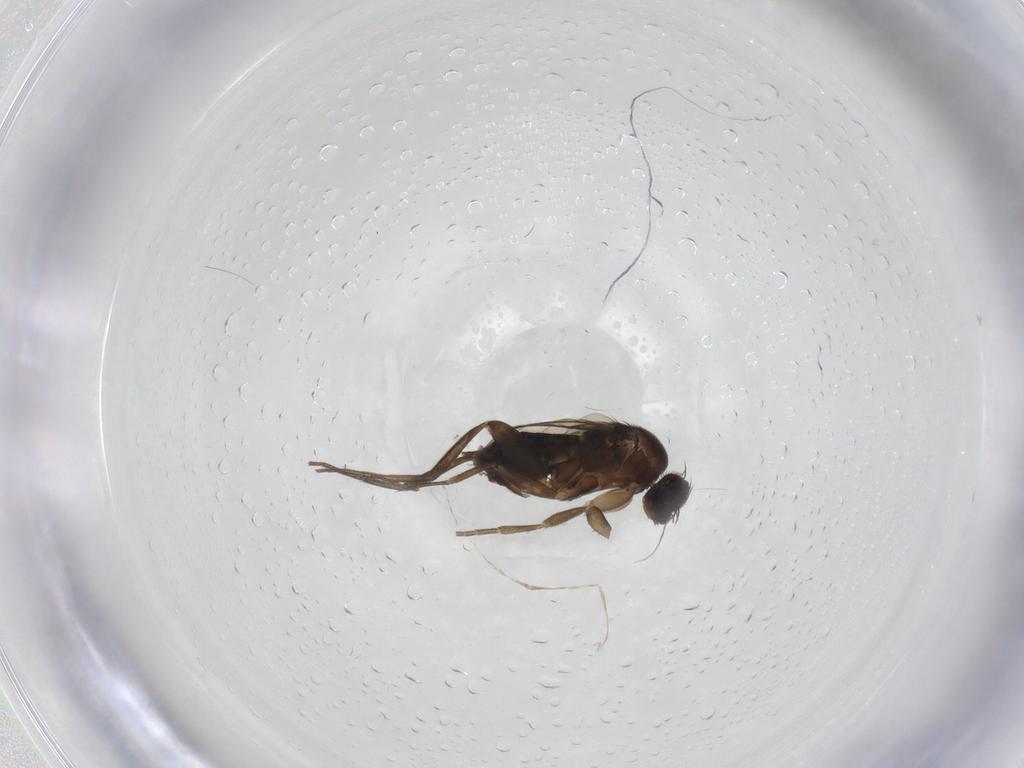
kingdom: Animalia
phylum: Arthropoda
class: Insecta
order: Diptera
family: Phoridae
